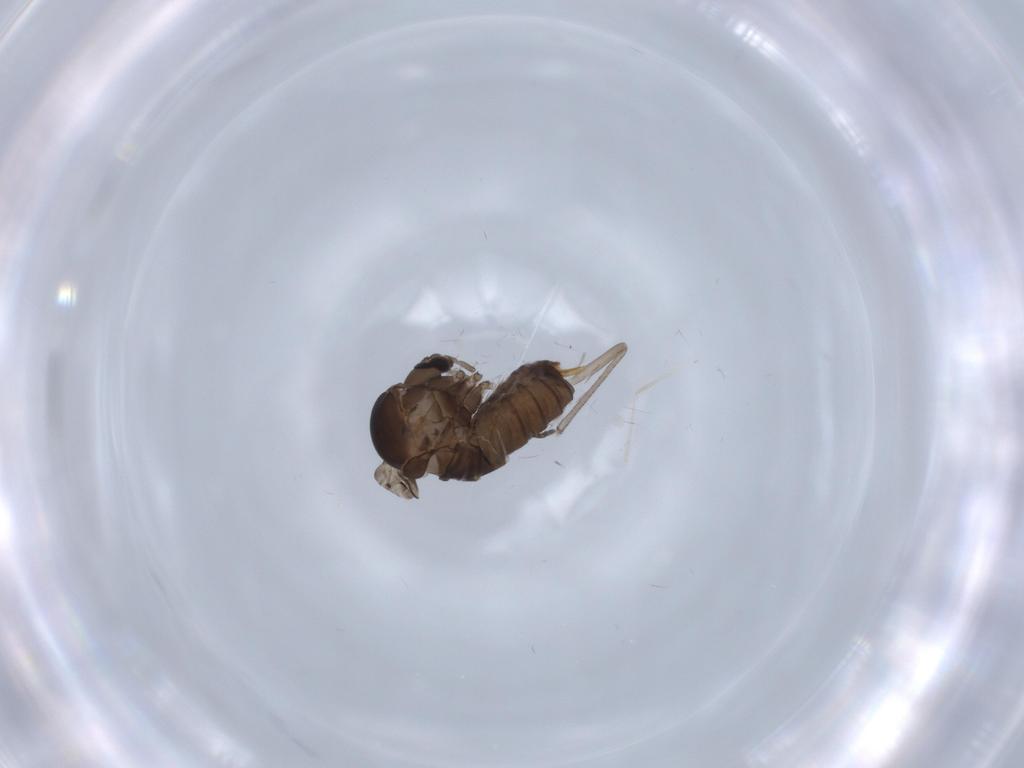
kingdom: Animalia
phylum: Arthropoda
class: Insecta
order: Diptera
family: Psychodidae
